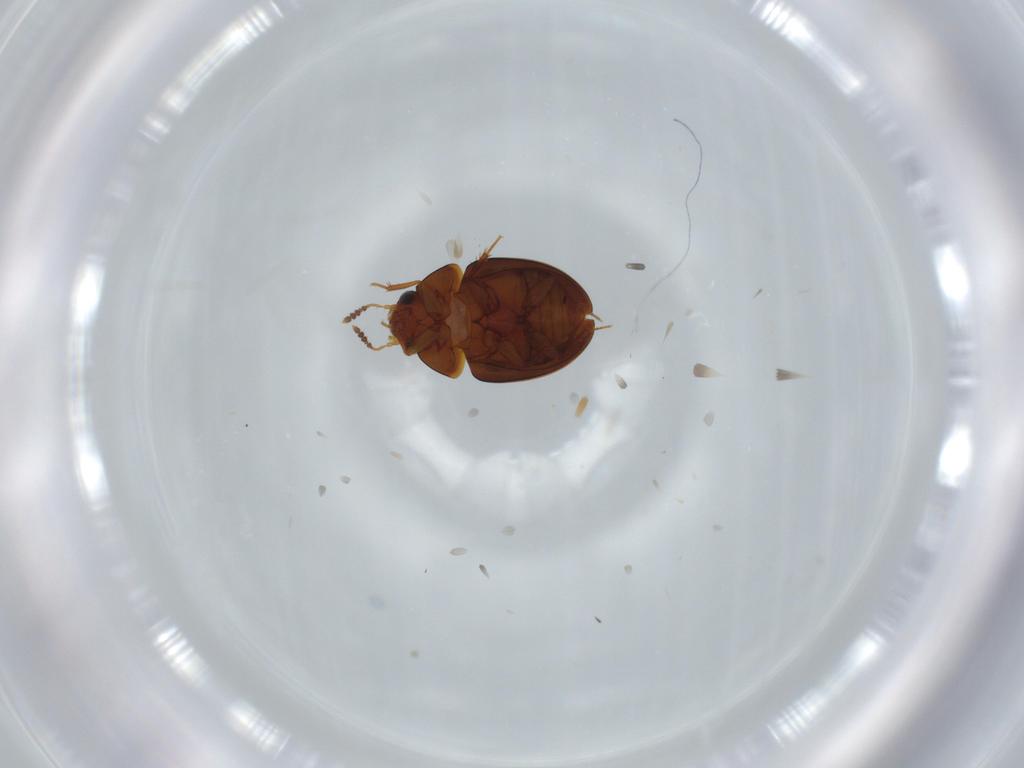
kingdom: Animalia
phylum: Arthropoda
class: Insecta
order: Coleoptera
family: Leiodidae
